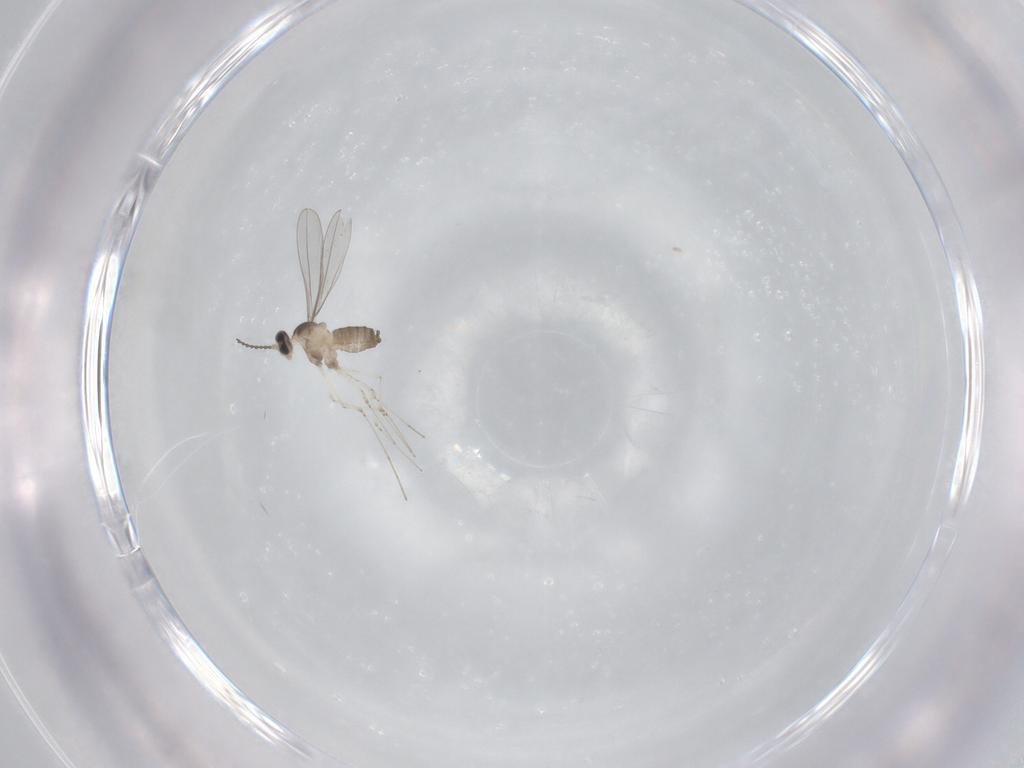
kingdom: Animalia
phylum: Arthropoda
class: Insecta
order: Diptera
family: Cecidomyiidae
